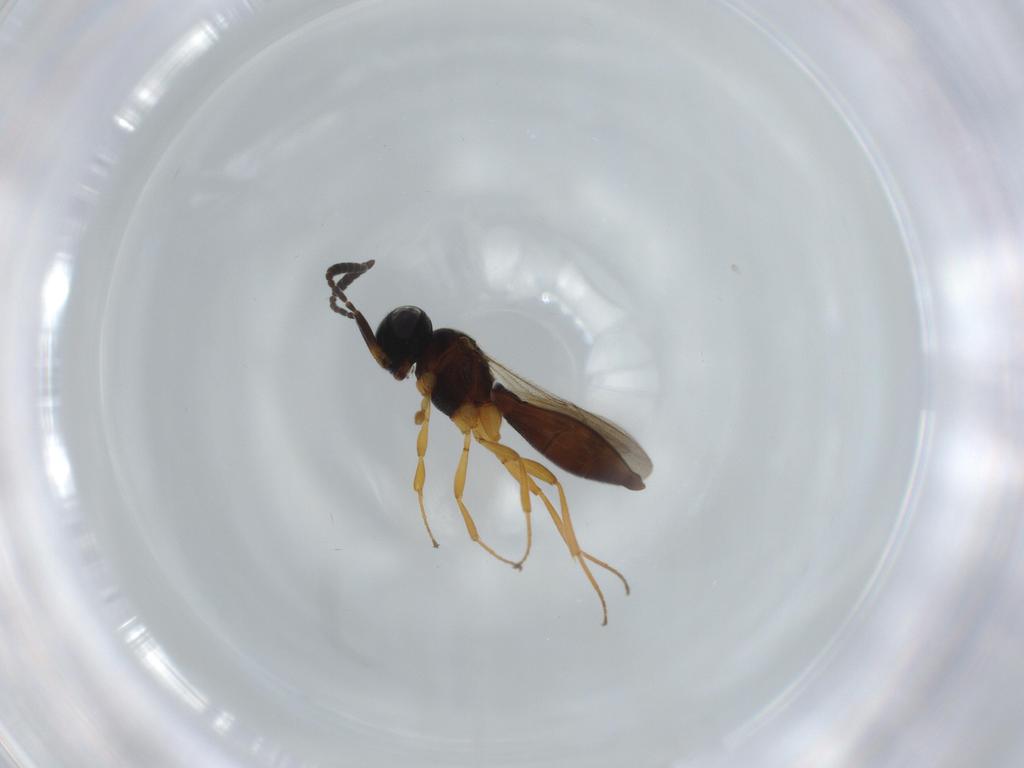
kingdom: Animalia
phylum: Arthropoda
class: Insecta
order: Hymenoptera
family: Scelionidae
